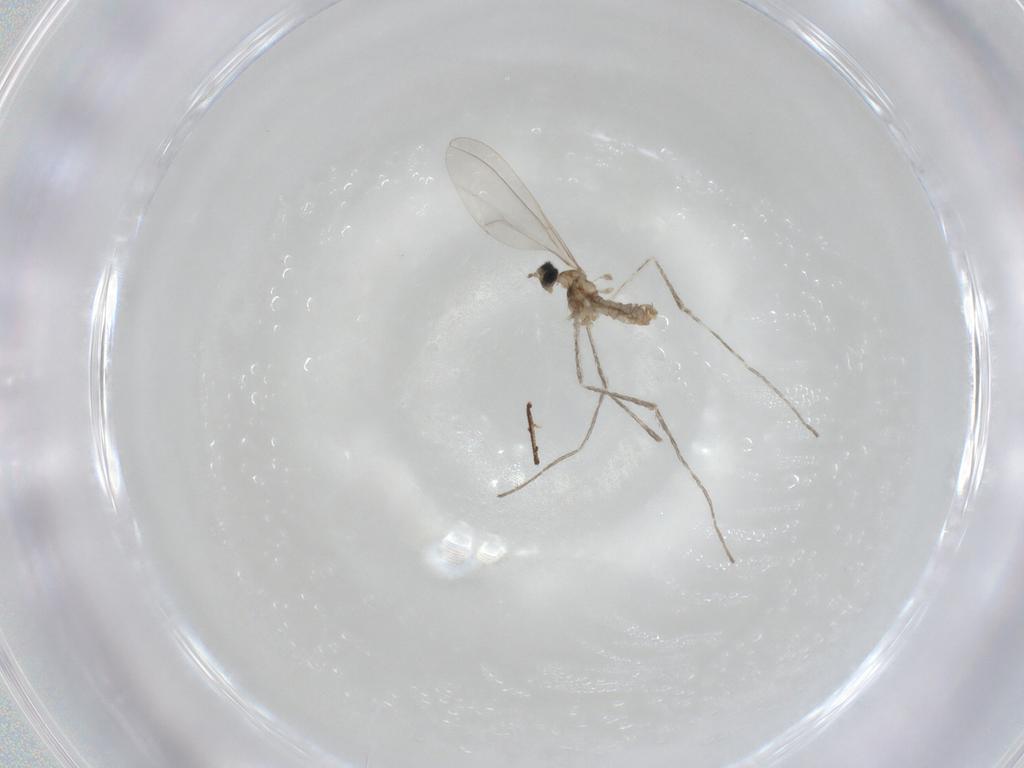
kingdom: Animalia
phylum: Arthropoda
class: Insecta
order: Diptera
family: Cecidomyiidae
